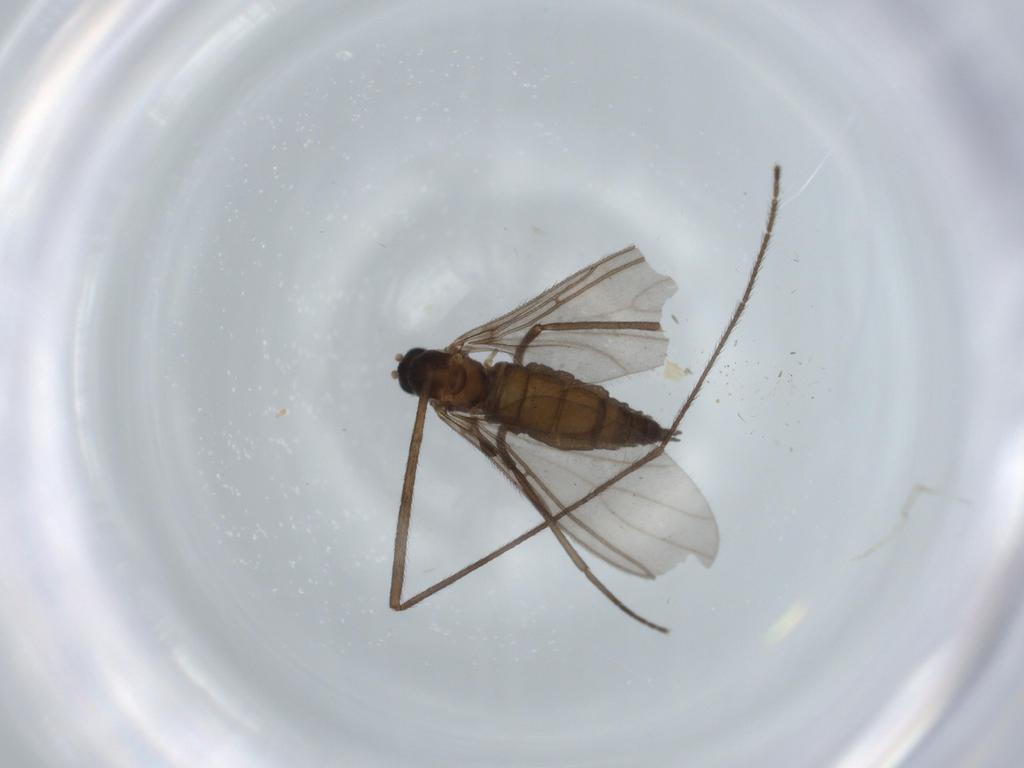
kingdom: Animalia
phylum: Arthropoda
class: Insecta
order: Diptera
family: Limoniidae
